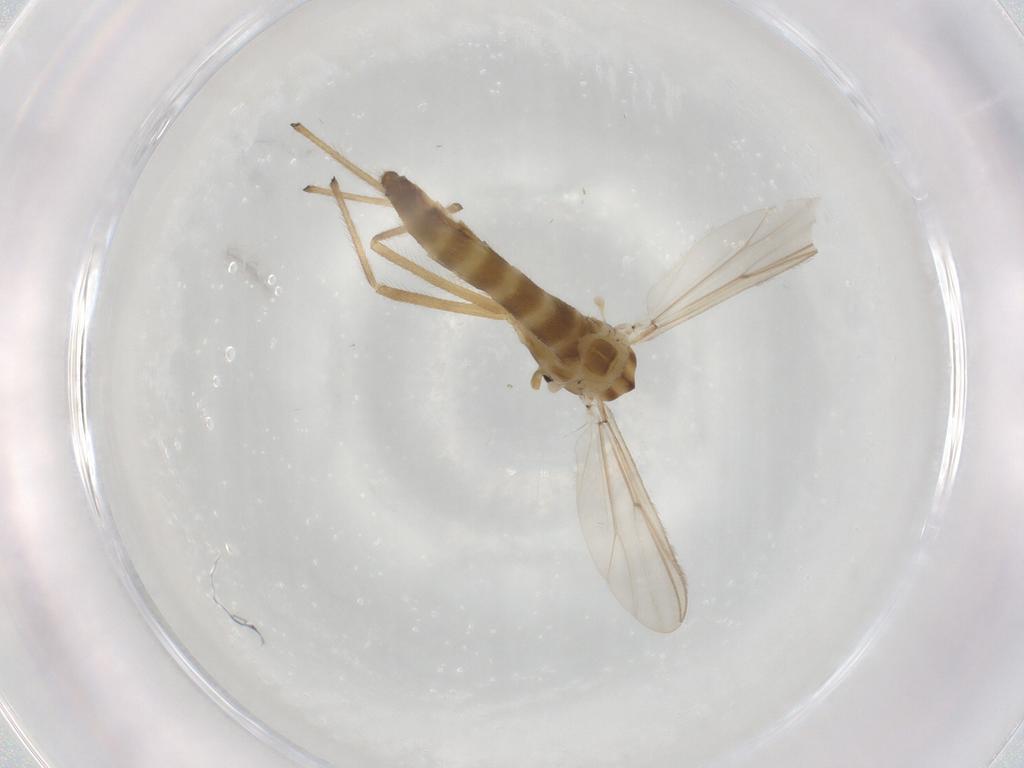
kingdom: Animalia
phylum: Arthropoda
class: Insecta
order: Diptera
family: Chironomidae
